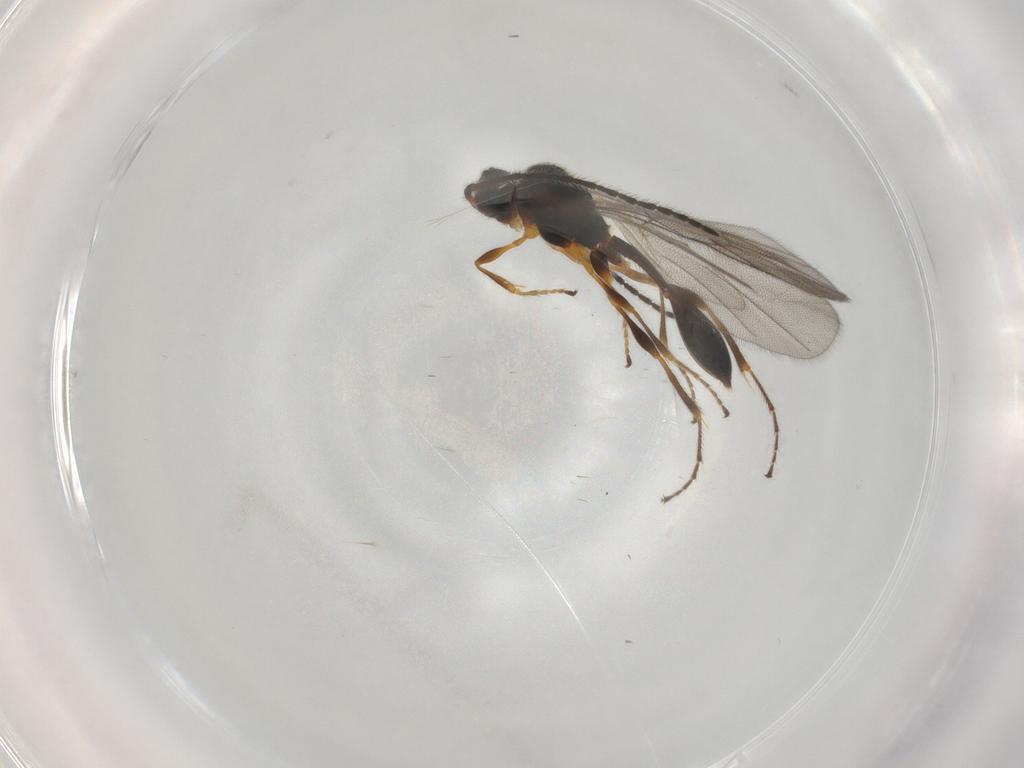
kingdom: Animalia
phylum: Arthropoda
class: Insecta
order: Hymenoptera
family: Diapriidae
